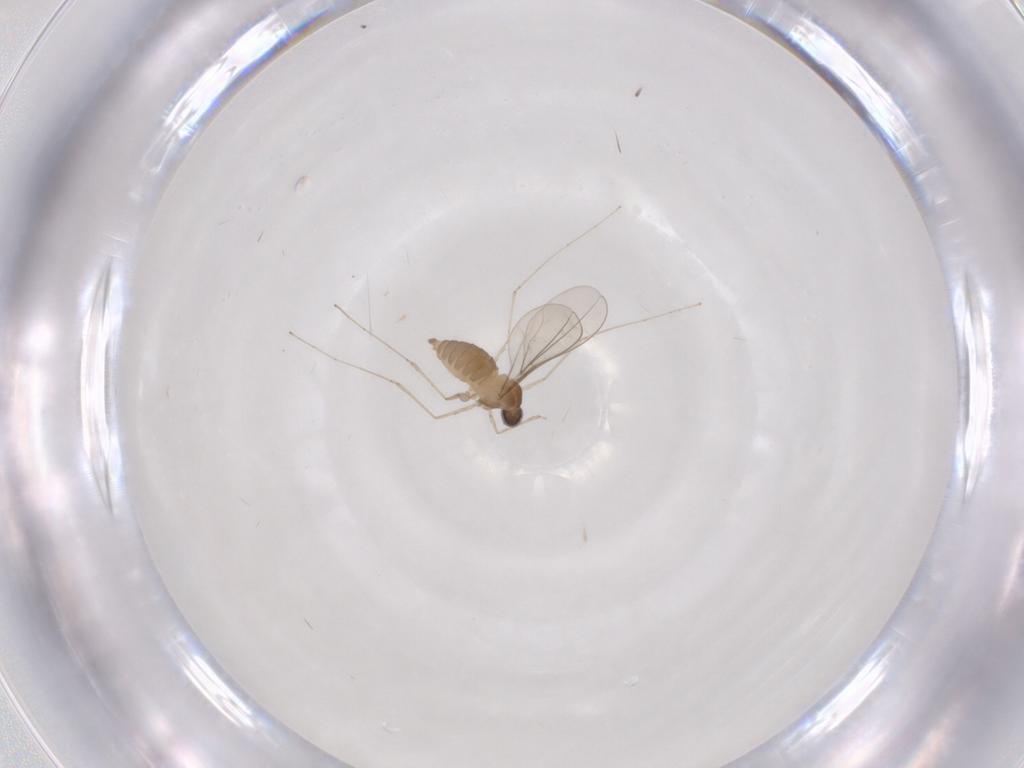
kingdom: Animalia
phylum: Arthropoda
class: Insecta
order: Diptera
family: Cecidomyiidae
